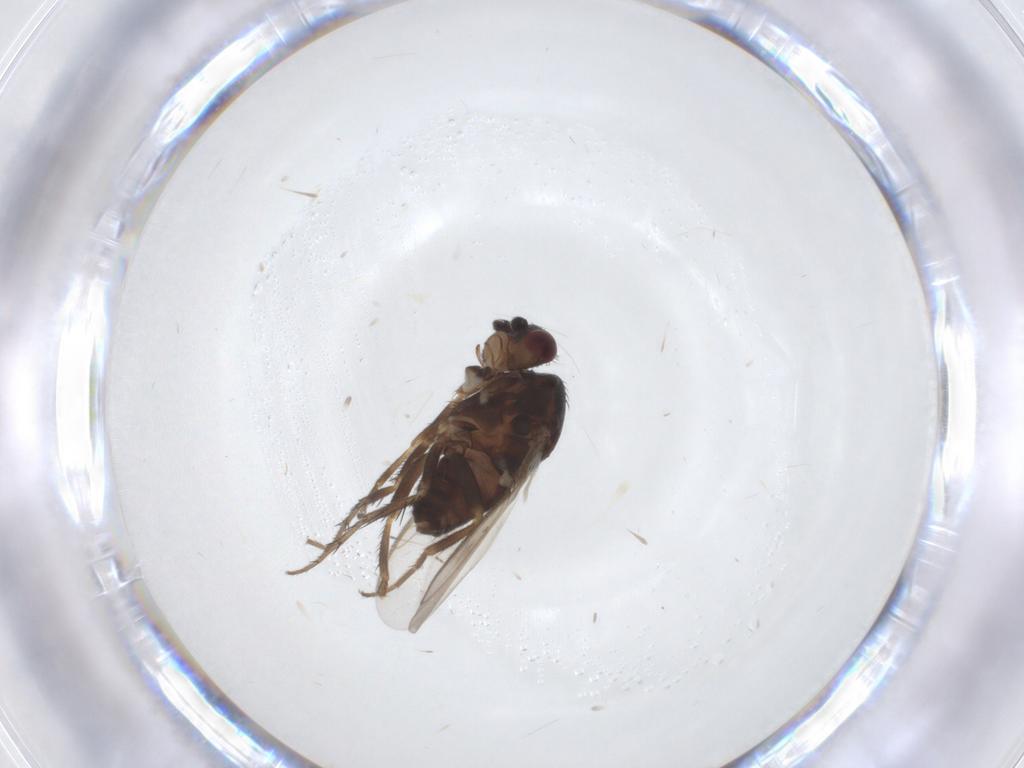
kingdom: Animalia
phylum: Arthropoda
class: Insecta
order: Diptera
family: Sphaeroceridae
